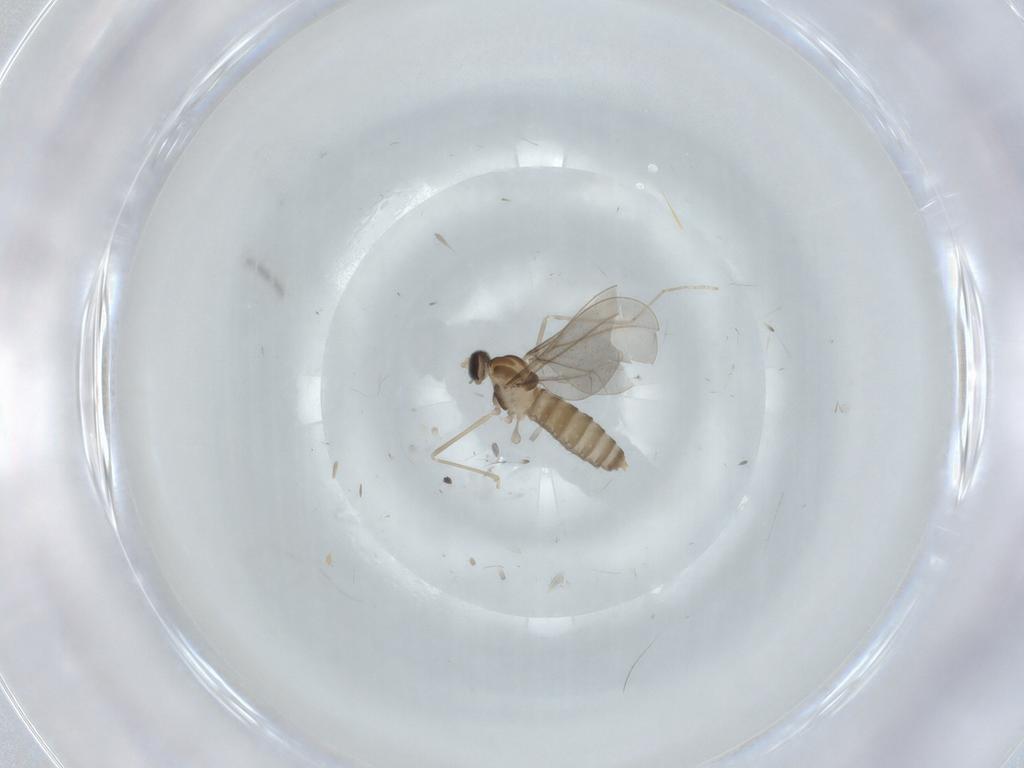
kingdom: Animalia
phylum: Arthropoda
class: Insecta
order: Diptera
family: Cecidomyiidae
